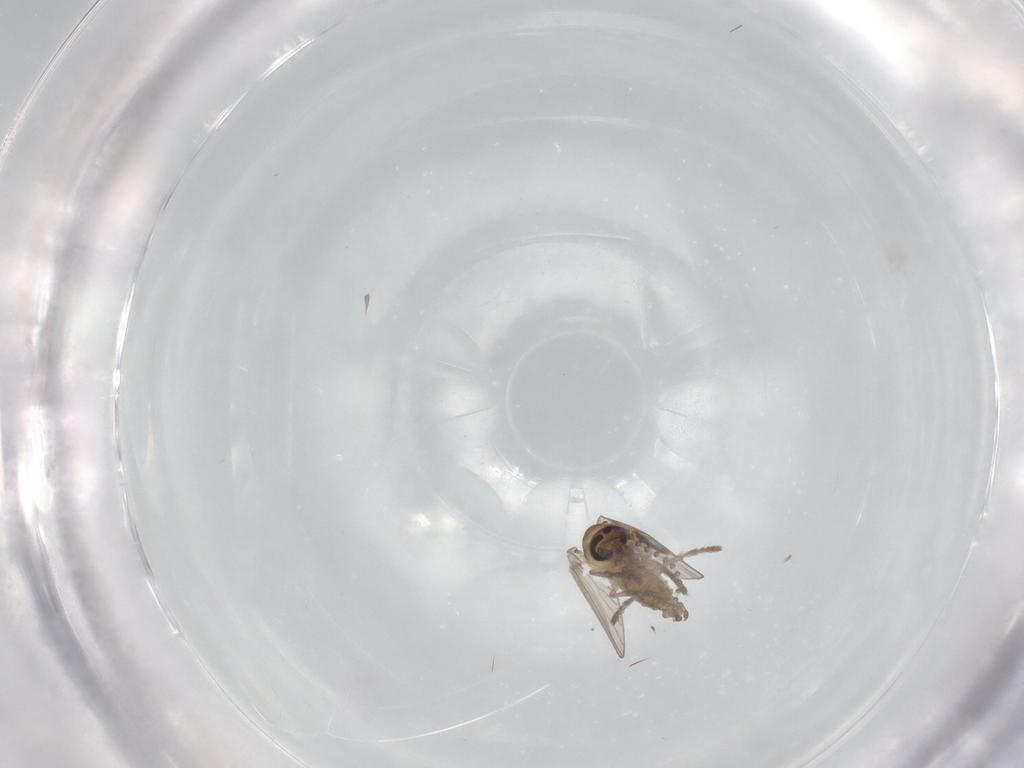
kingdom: Animalia
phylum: Arthropoda
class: Insecta
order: Diptera
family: Psychodidae
